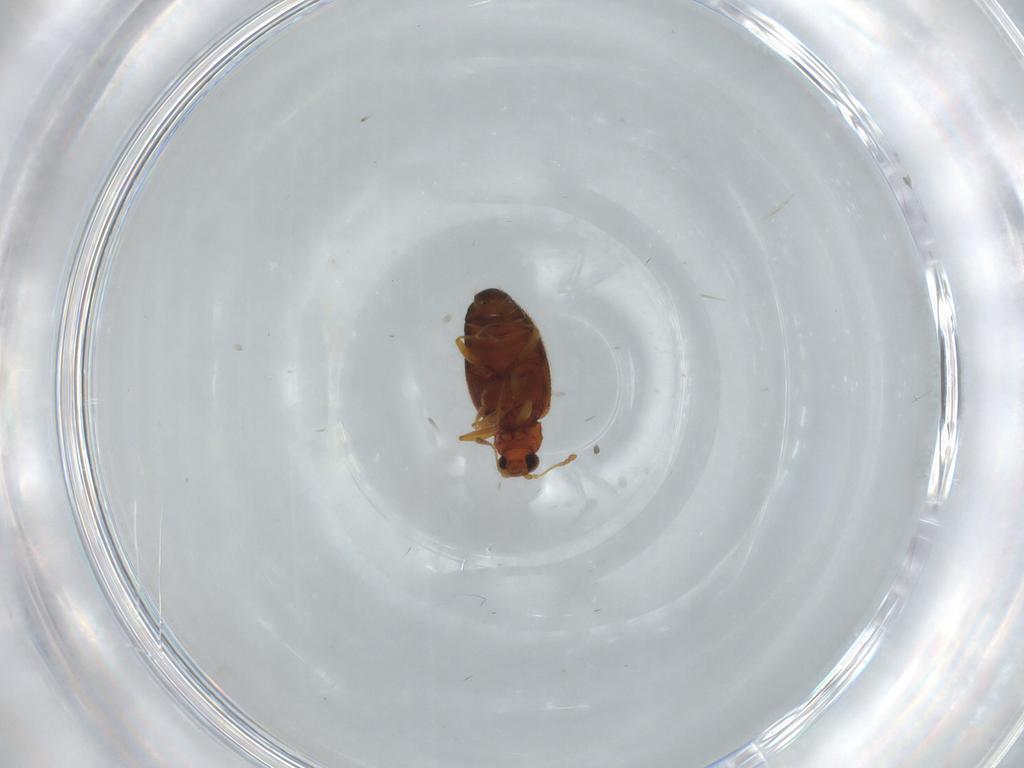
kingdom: Animalia
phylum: Arthropoda
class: Insecta
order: Coleoptera
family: Latridiidae
